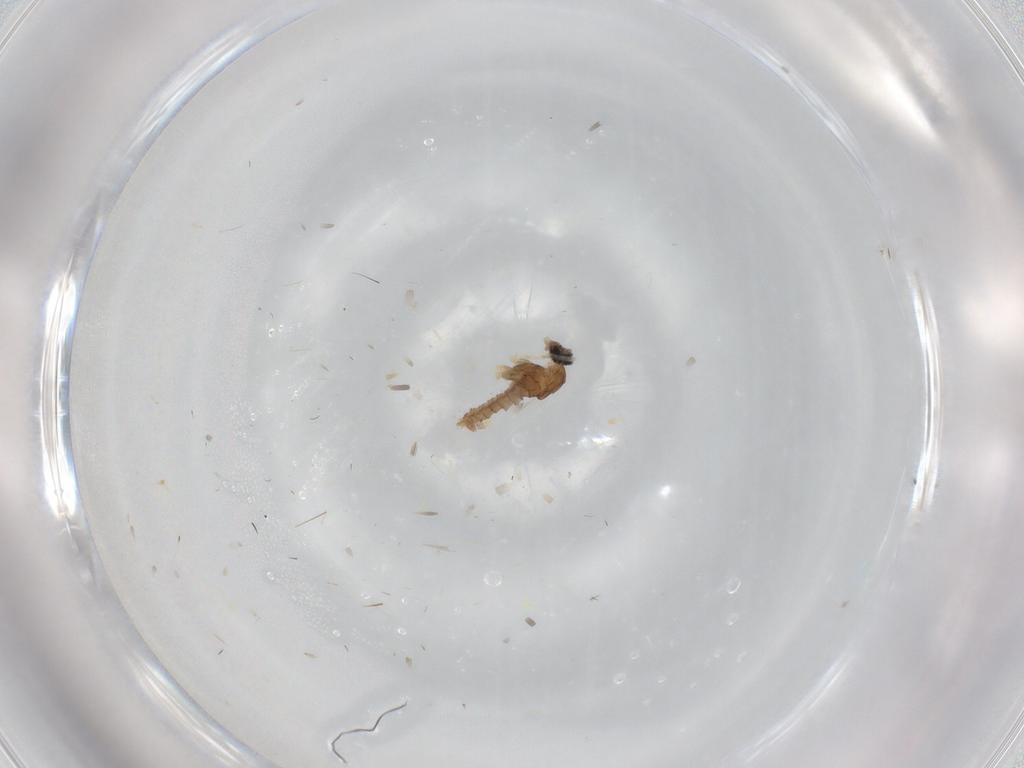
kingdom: Animalia
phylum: Arthropoda
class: Insecta
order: Diptera
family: Cecidomyiidae
